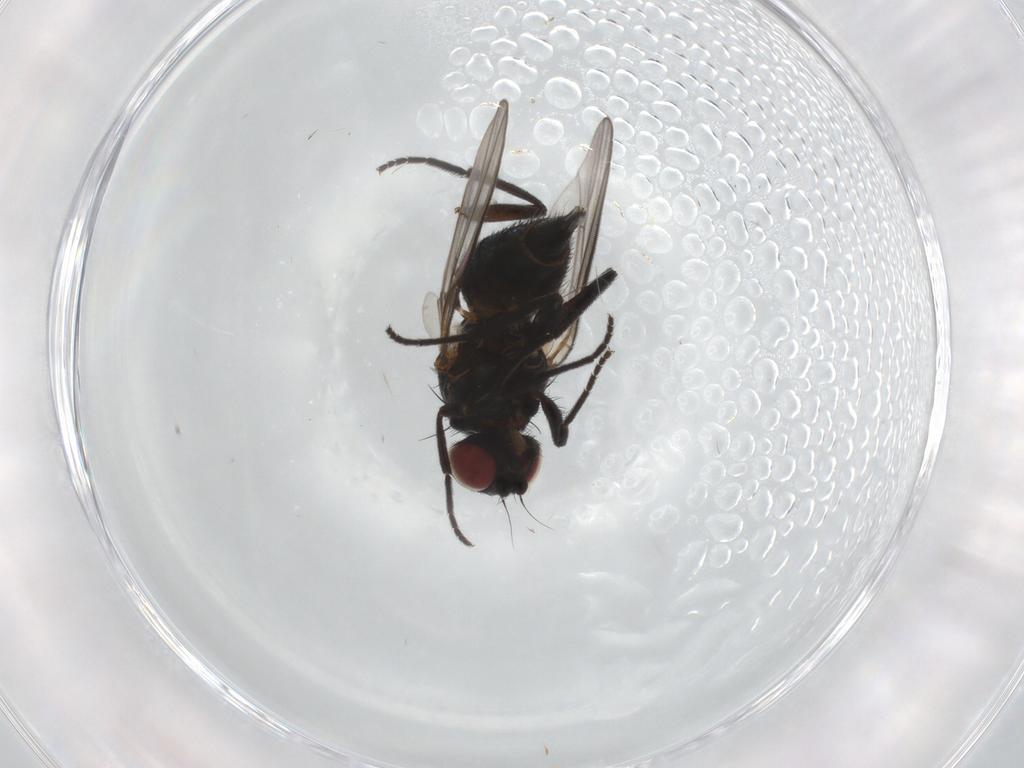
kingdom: Animalia
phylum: Arthropoda
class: Insecta
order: Diptera
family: Agromyzidae
